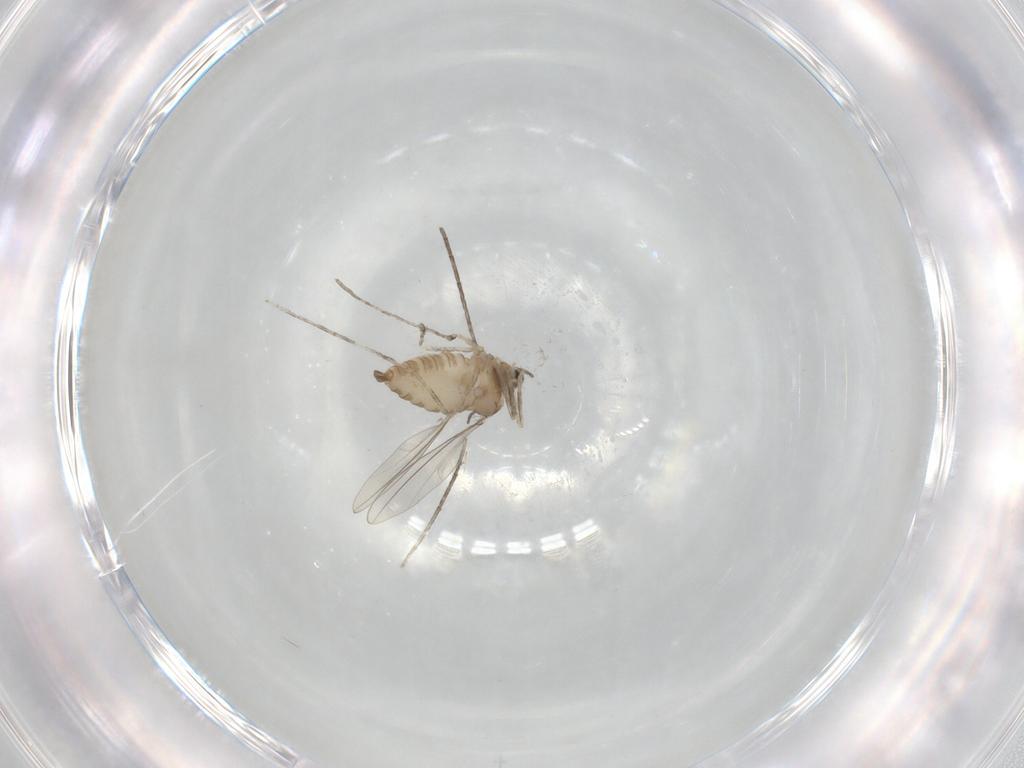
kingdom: Animalia
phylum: Arthropoda
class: Insecta
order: Diptera
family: Cecidomyiidae
